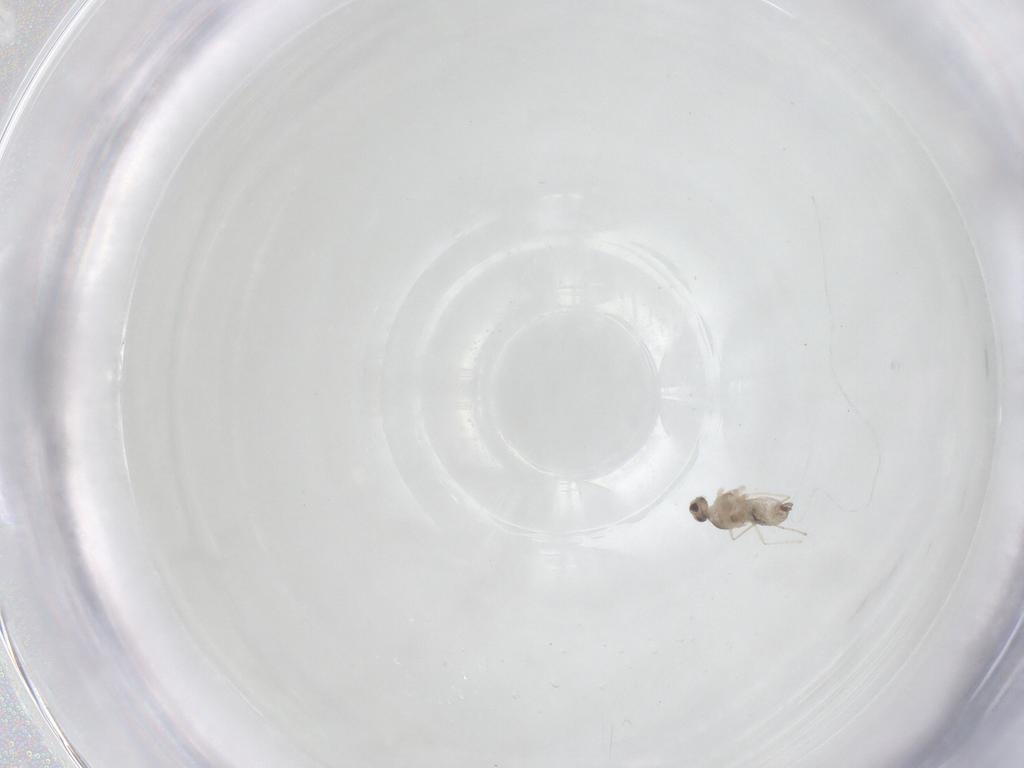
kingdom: Animalia
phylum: Arthropoda
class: Insecta
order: Diptera
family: Cecidomyiidae
